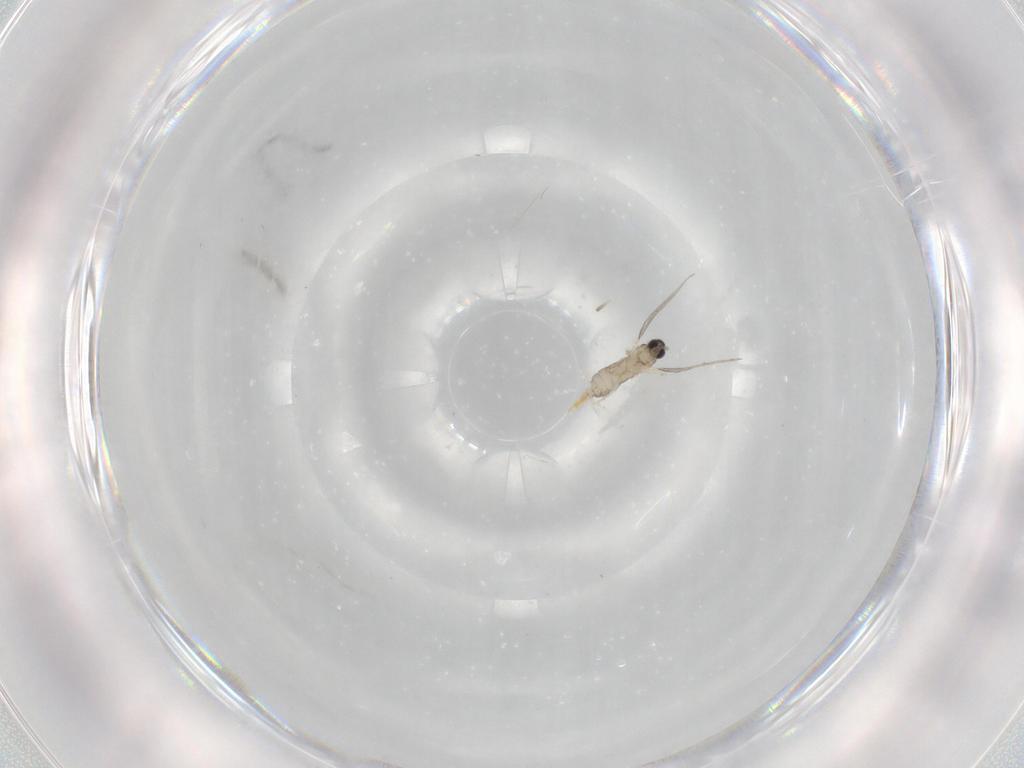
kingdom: Animalia
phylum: Arthropoda
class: Insecta
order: Diptera
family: Cecidomyiidae
